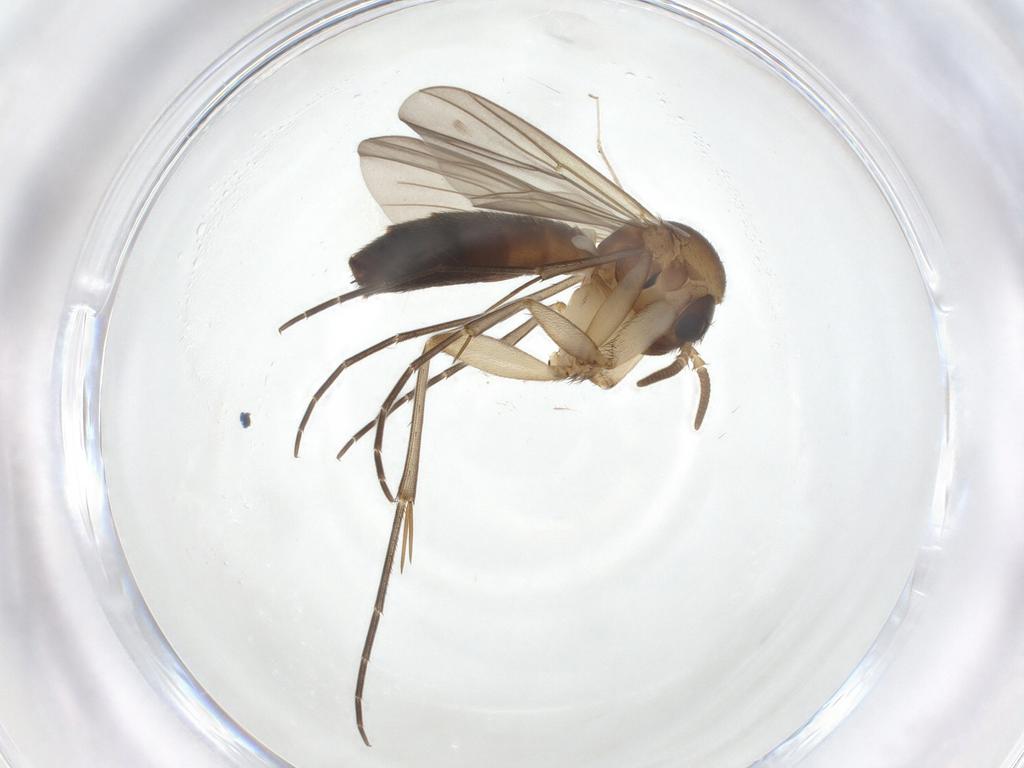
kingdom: Animalia
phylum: Arthropoda
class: Insecta
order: Diptera
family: Mycetophilidae
